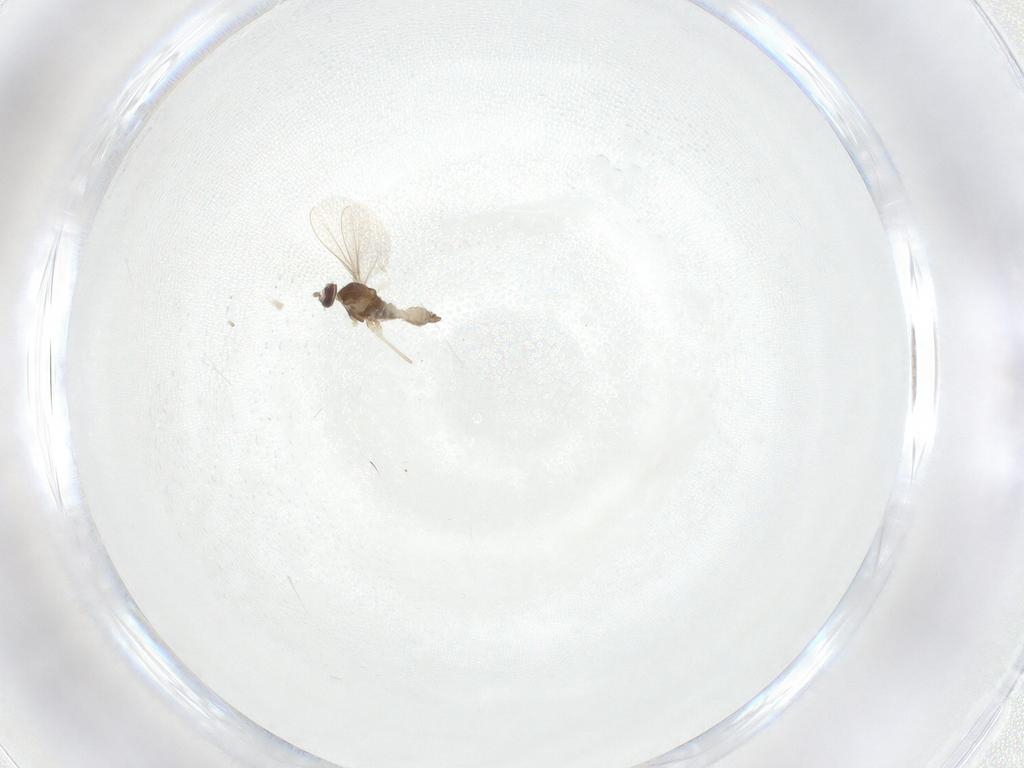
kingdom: Animalia
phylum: Arthropoda
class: Insecta
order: Diptera
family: Cecidomyiidae
